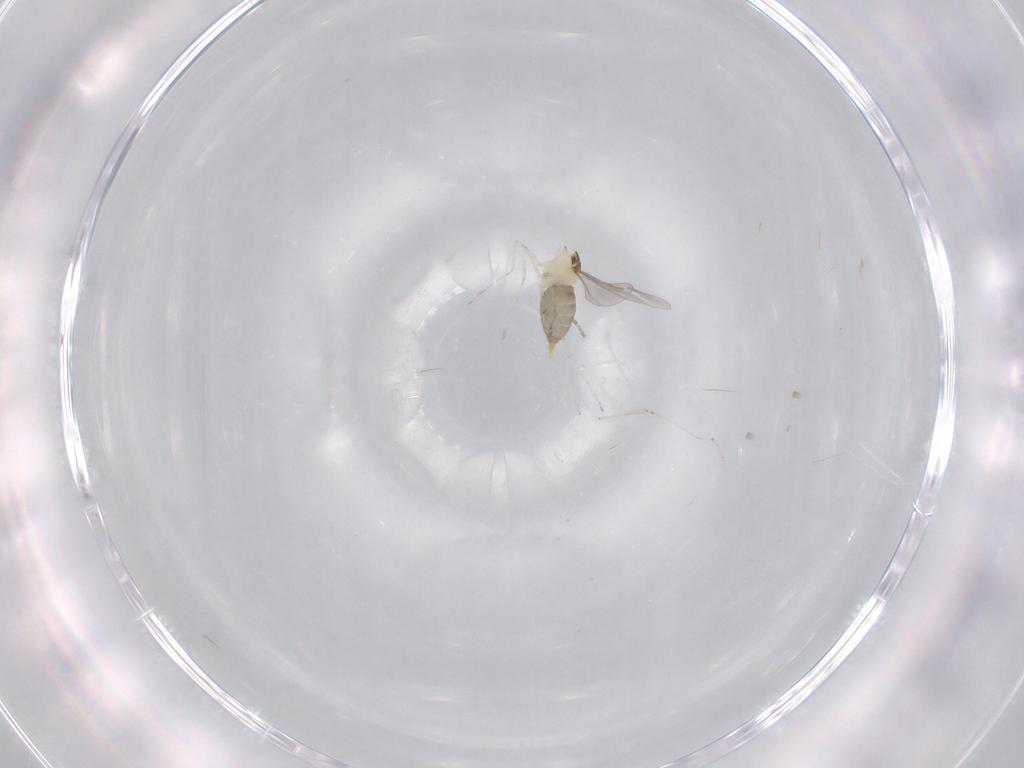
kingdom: Animalia
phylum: Arthropoda
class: Insecta
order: Diptera
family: Cecidomyiidae
